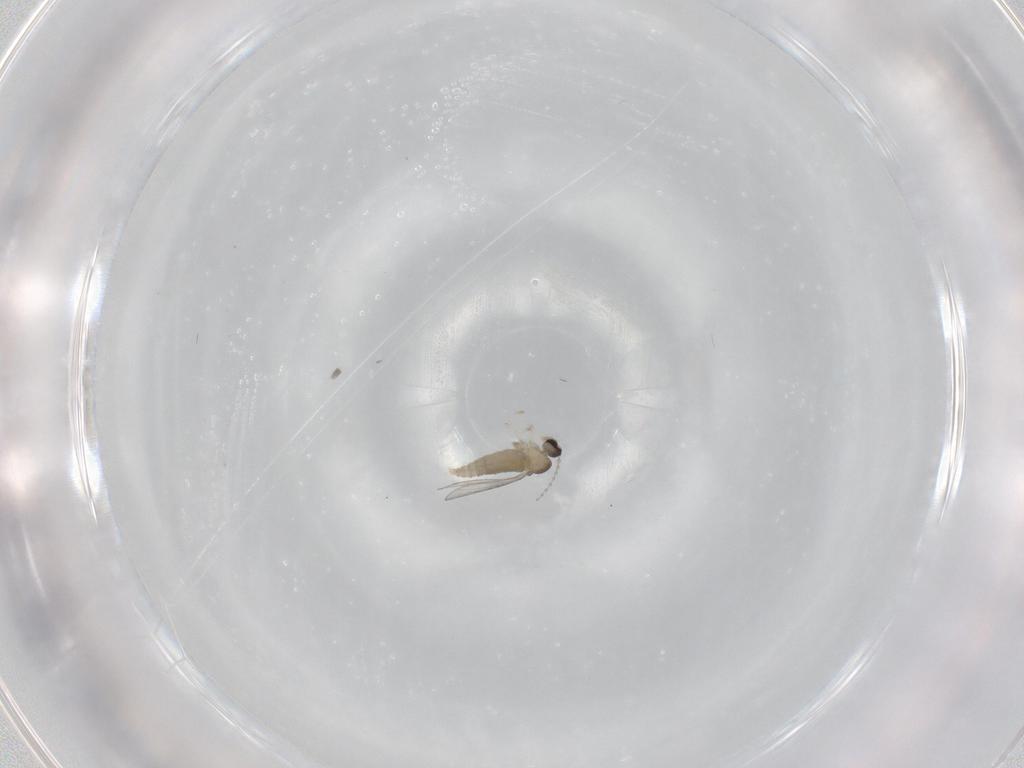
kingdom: Animalia
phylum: Arthropoda
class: Insecta
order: Diptera
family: Cecidomyiidae
